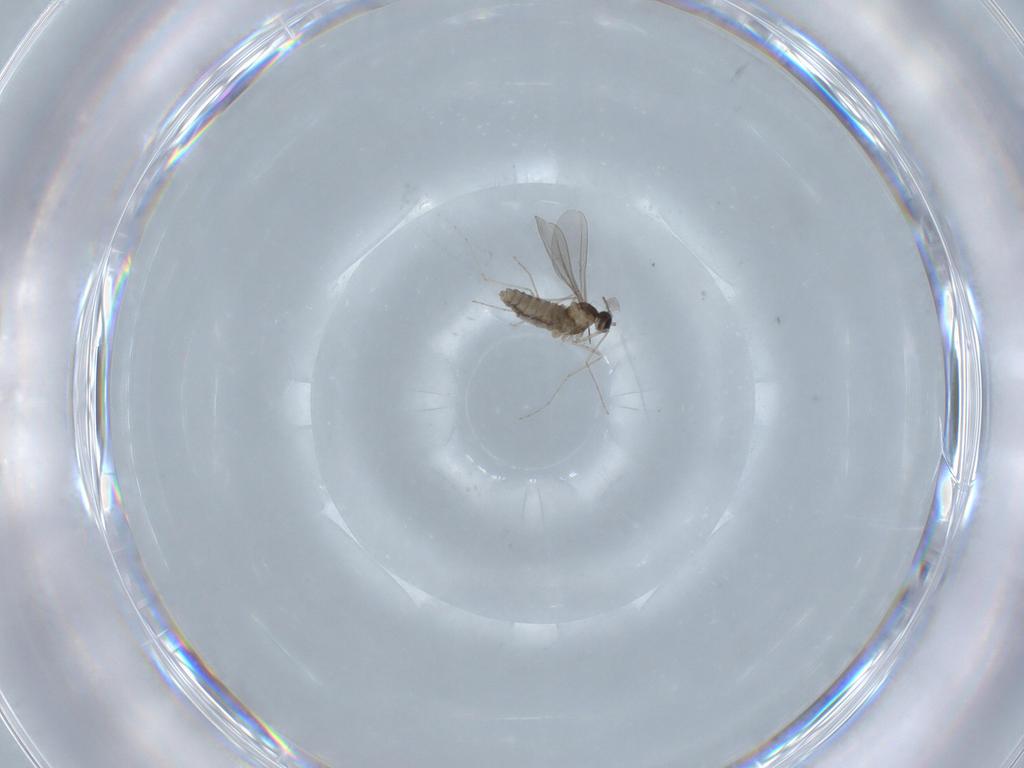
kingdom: Animalia
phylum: Arthropoda
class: Insecta
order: Diptera
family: Cecidomyiidae
